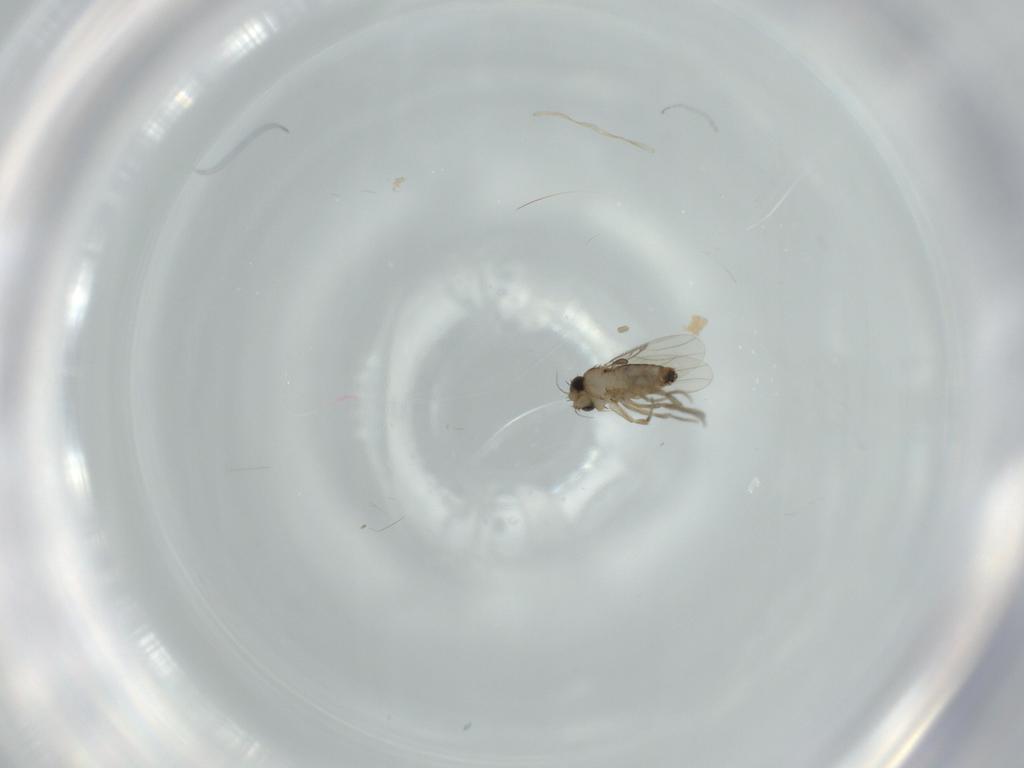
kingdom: Animalia
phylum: Arthropoda
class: Insecta
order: Diptera
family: Phoridae
